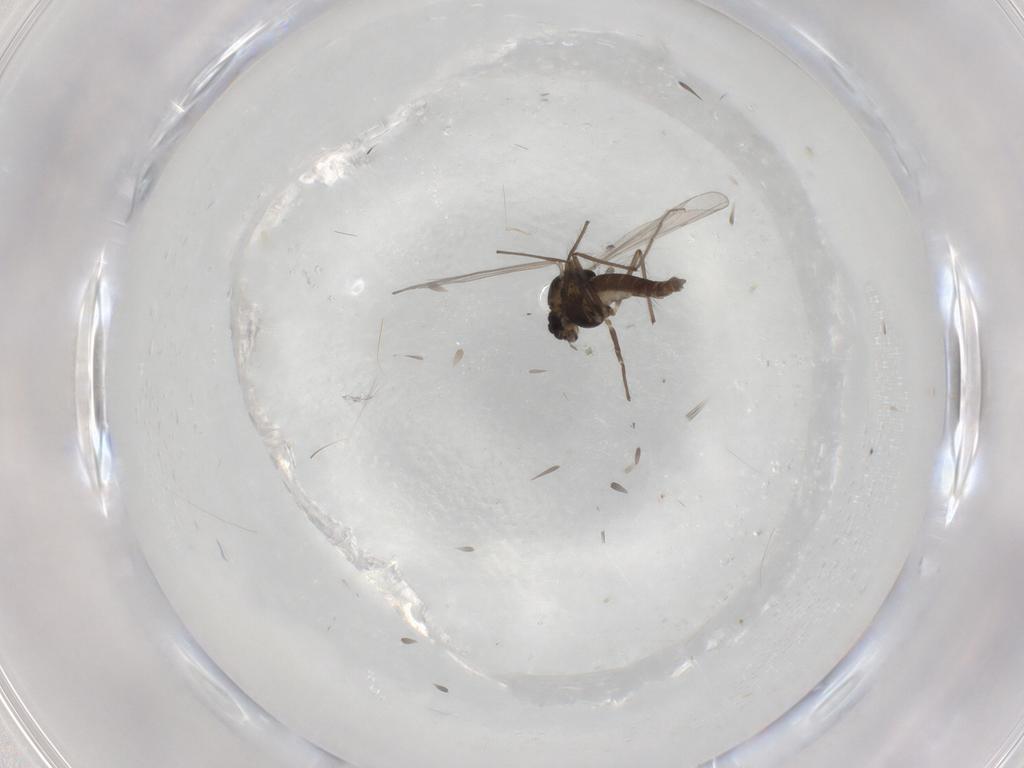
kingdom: Animalia
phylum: Arthropoda
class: Insecta
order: Diptera
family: Chironomidae
